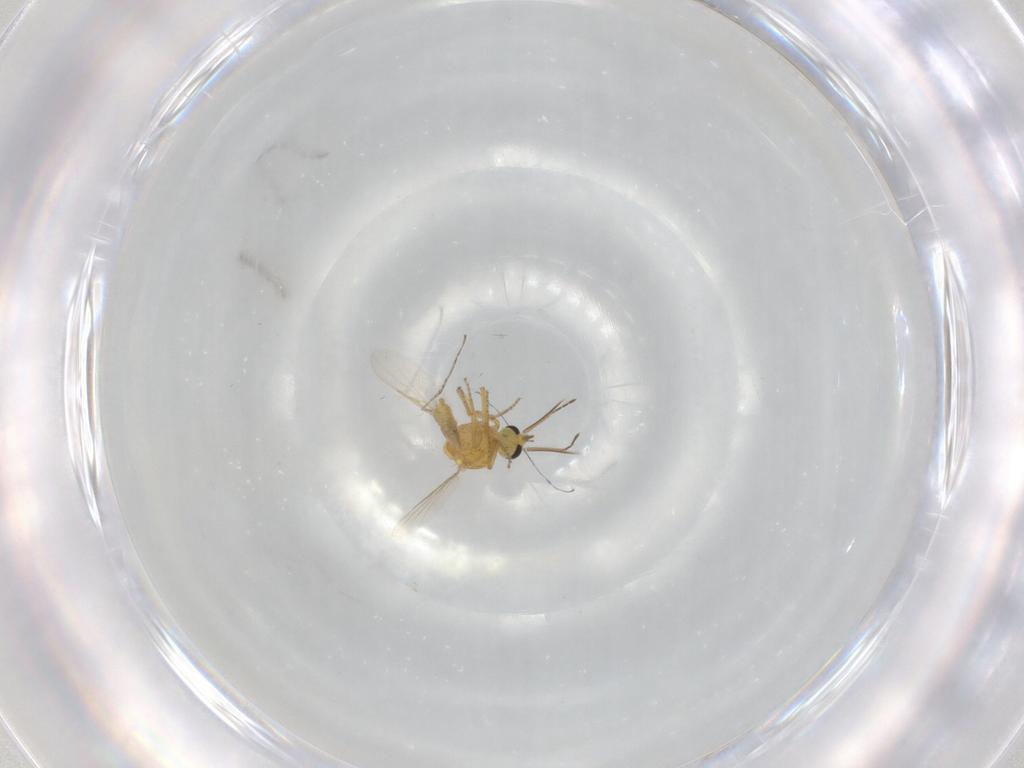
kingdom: Animalia
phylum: Arthropoda
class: Insecta
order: Diptera
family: Ceratopogonidae
